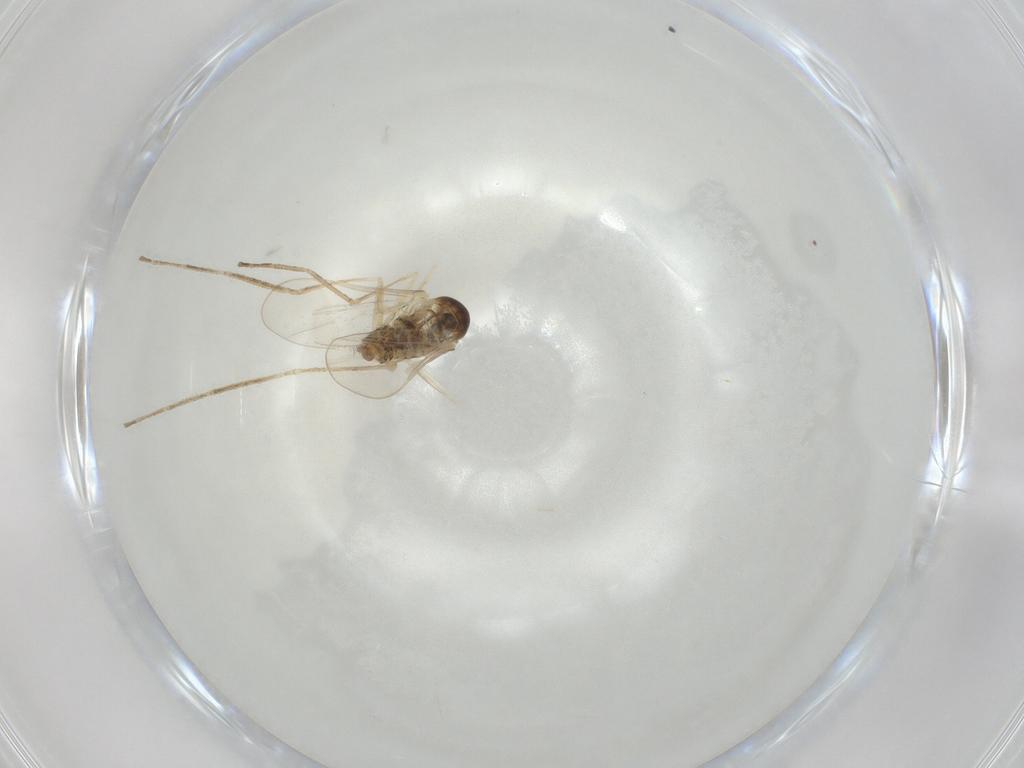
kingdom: Animalia
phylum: Arthropoda
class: Insecta
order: Diptera
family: Cecidomyiidae
